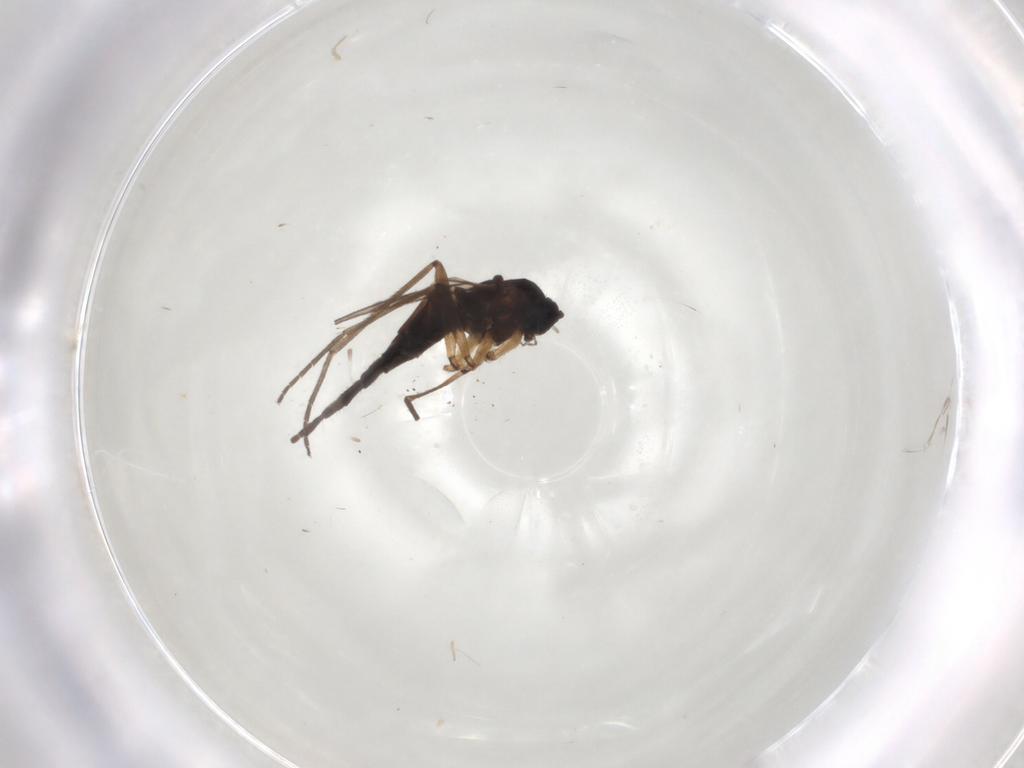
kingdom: Animalia
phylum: Arthropoda
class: Insecta
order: Diptera
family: Sciaridae
